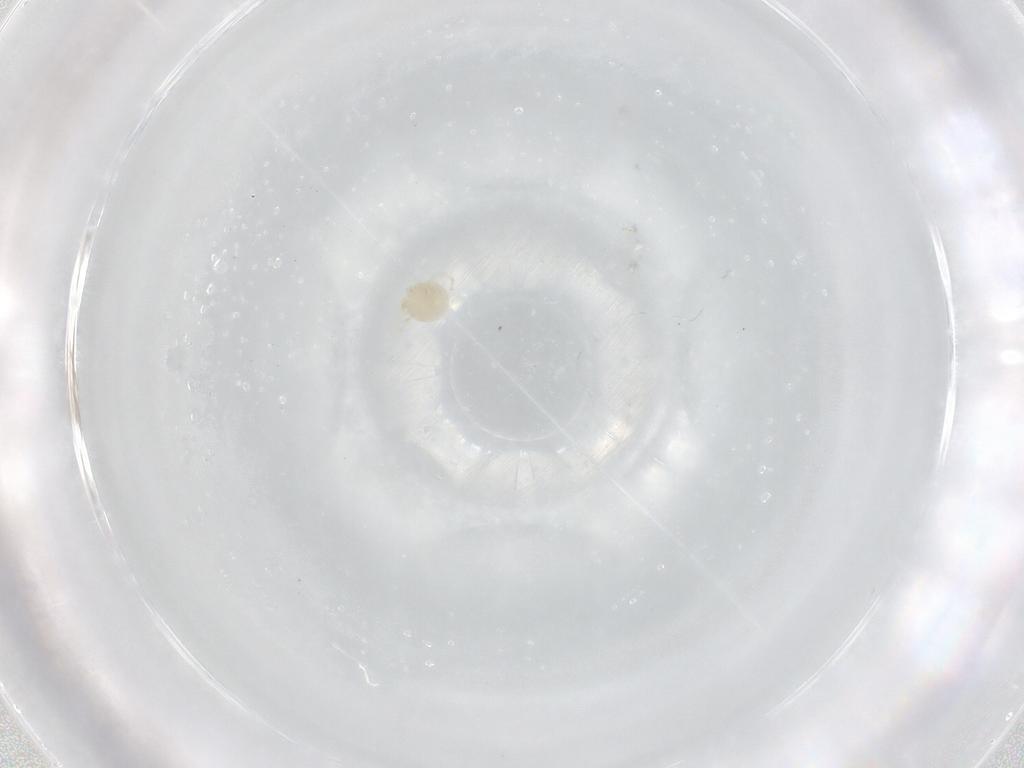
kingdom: Animalia
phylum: Arthropoda
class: Arachnida
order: Trombidiformes
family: Sperchontidae
